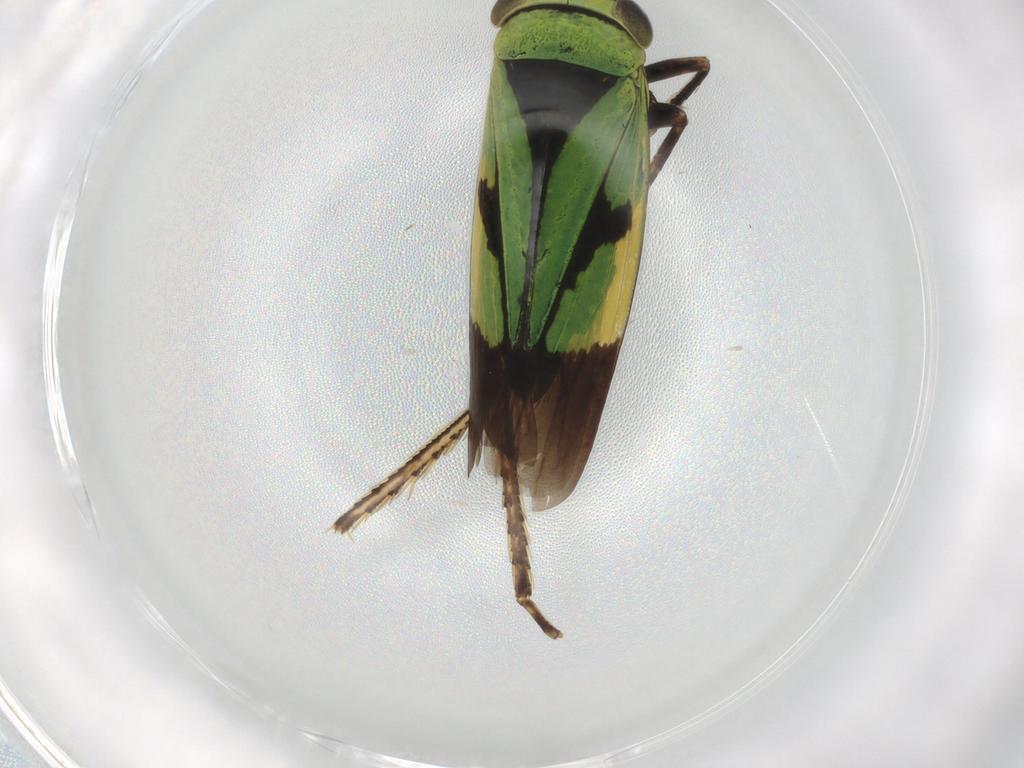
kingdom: Animalia
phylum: Arthropoda
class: Insecta
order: Hemiptera
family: Cicadellidae
